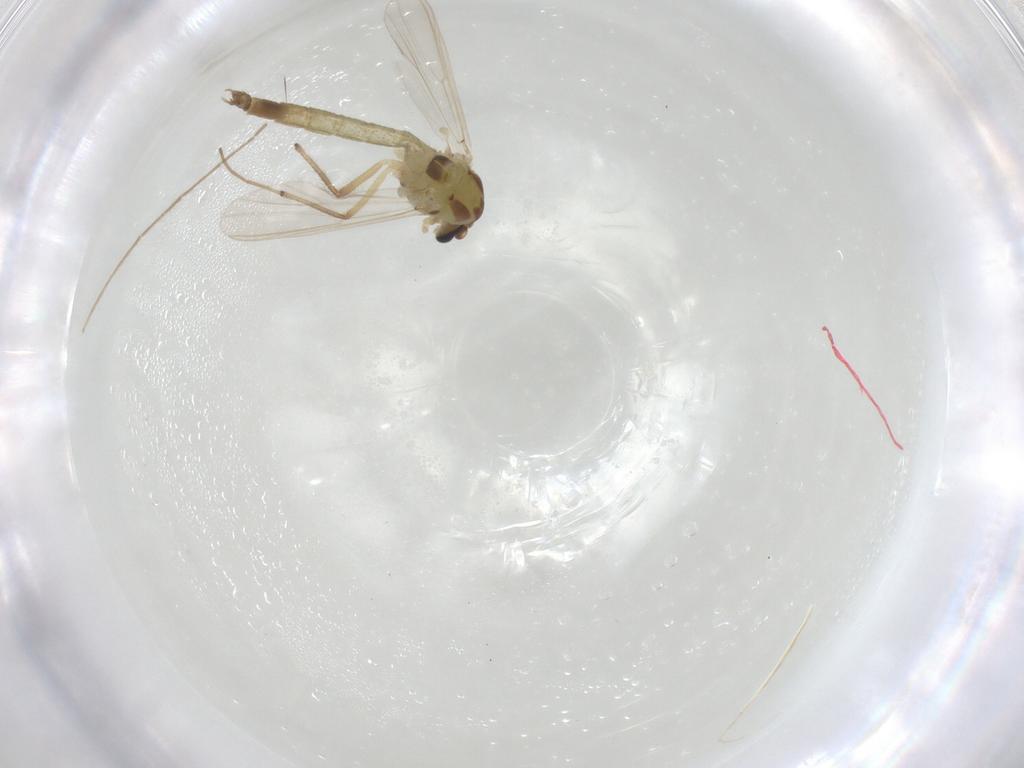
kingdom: Animalia
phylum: Arthropoda
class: Insecta
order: Diptera
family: Chironomidae
